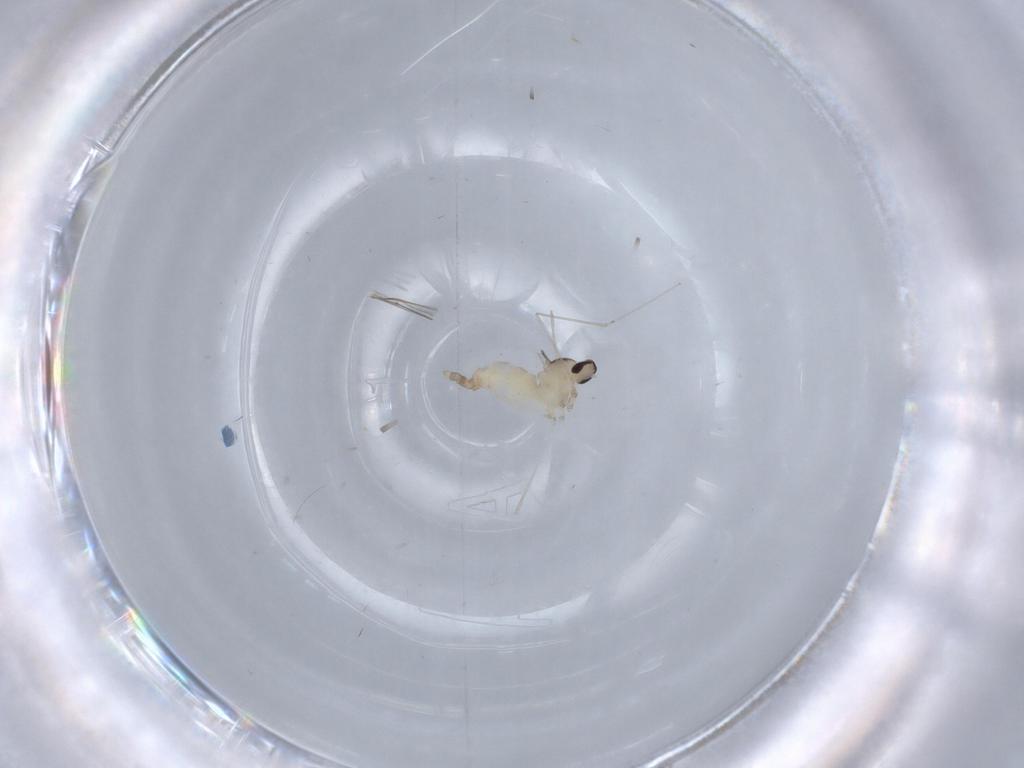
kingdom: Animalia
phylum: Arthropoda
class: Insecta
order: Diptera
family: Cecidomyiidae
